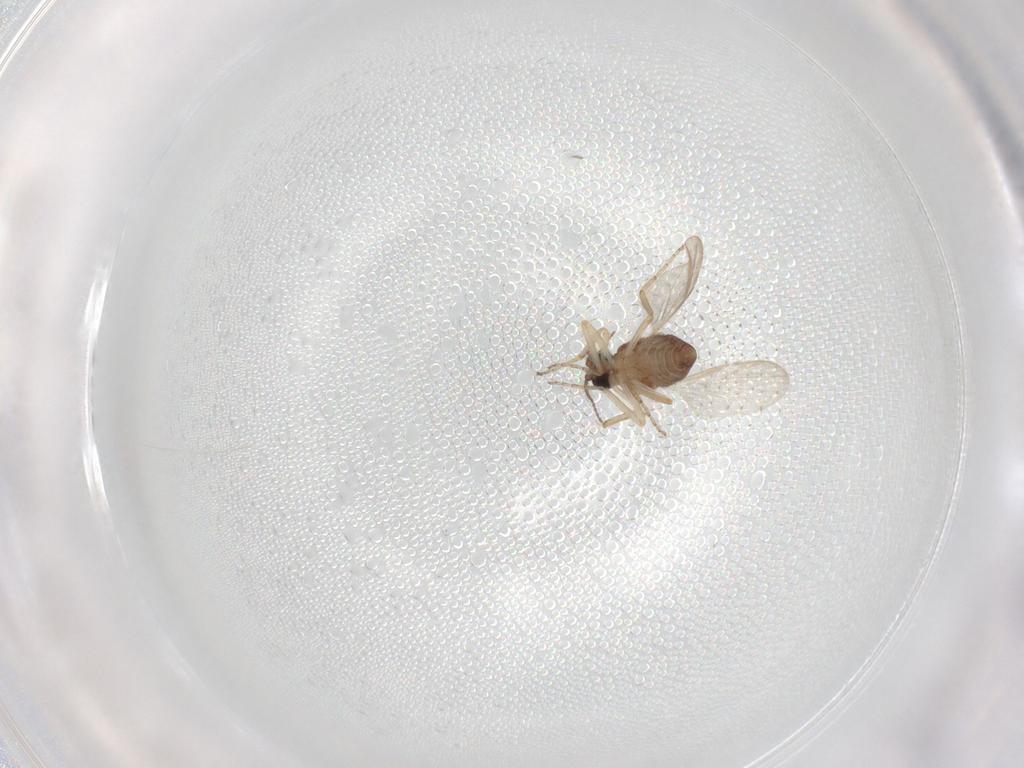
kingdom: Animalia
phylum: Arthropoda
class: Insecta
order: Diptera
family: Ceratopogonidae
